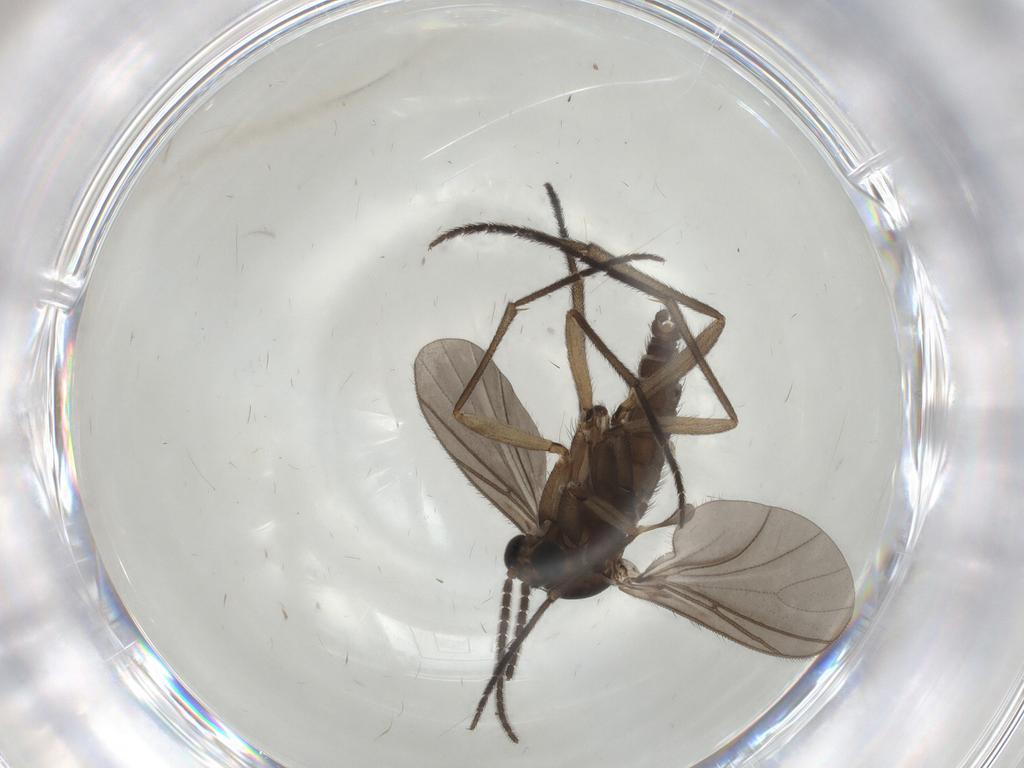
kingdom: Animalia
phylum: Arthropoda
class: Insecta
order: Diptera
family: Sciaridae
